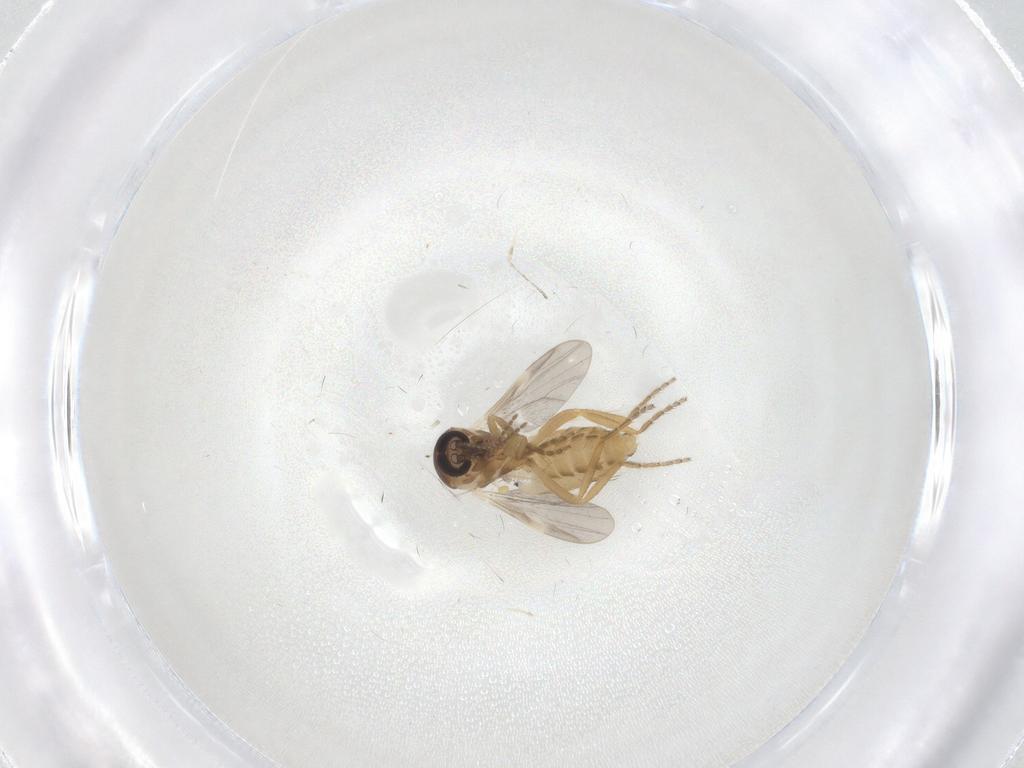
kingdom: Animalia
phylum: Arthropoda
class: Insecta
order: Diptera
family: Ceratopogonidae
